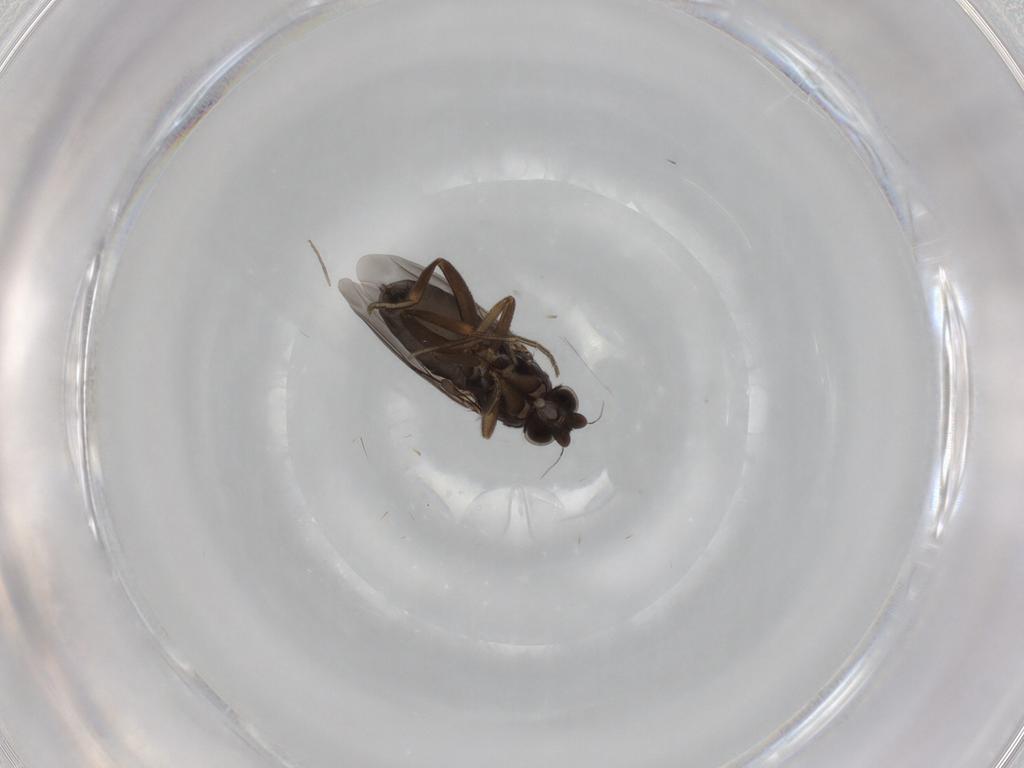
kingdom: Animalia
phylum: Arthropoda
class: Insecta
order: Diptera
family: Phoridae
